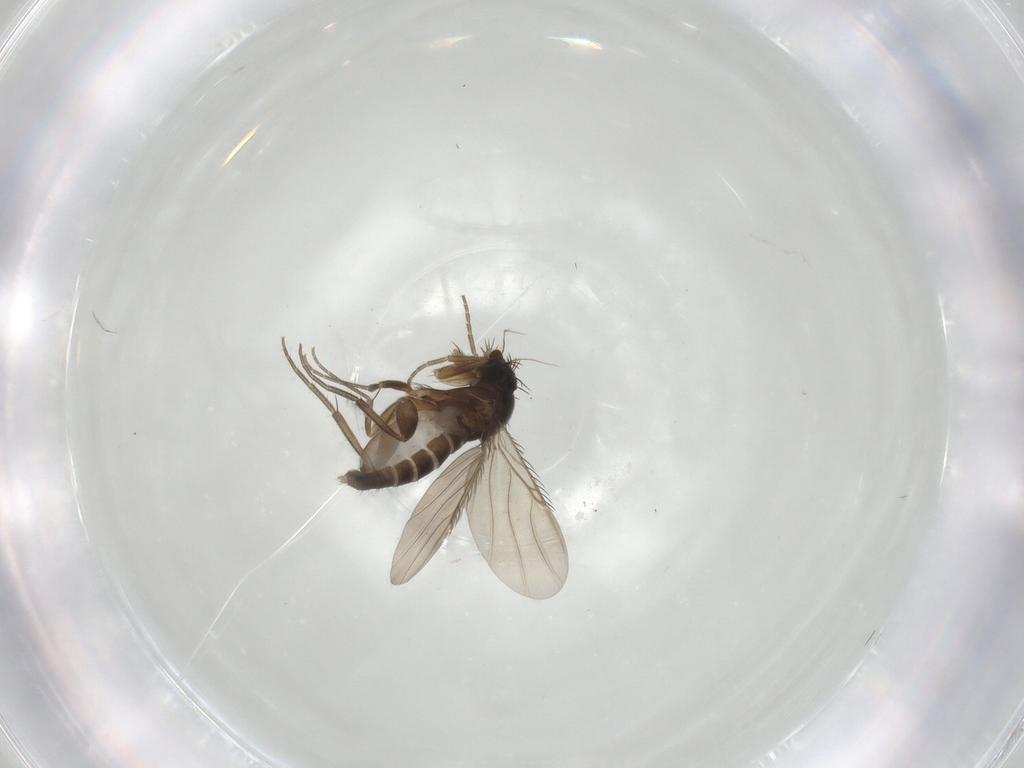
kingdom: Animalia
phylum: Arthropoda
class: Insecta
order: Diptera
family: Phoridae
